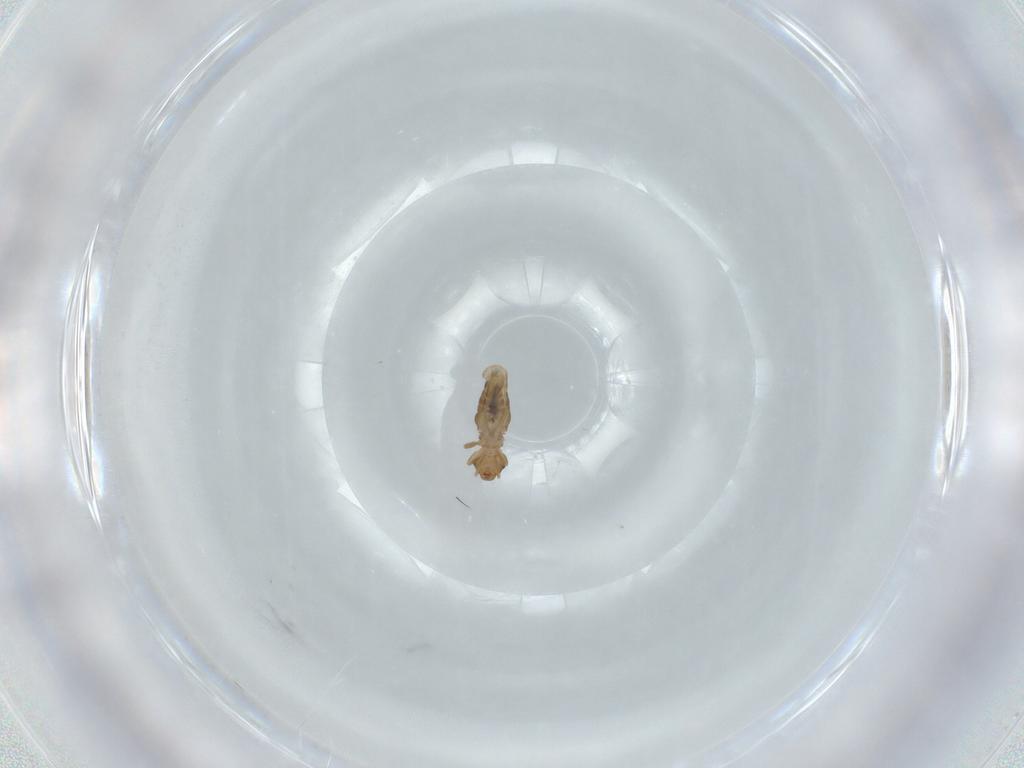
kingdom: Animalia
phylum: Arthropoda
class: Insecta
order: Psocodea
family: Liposcelididae
